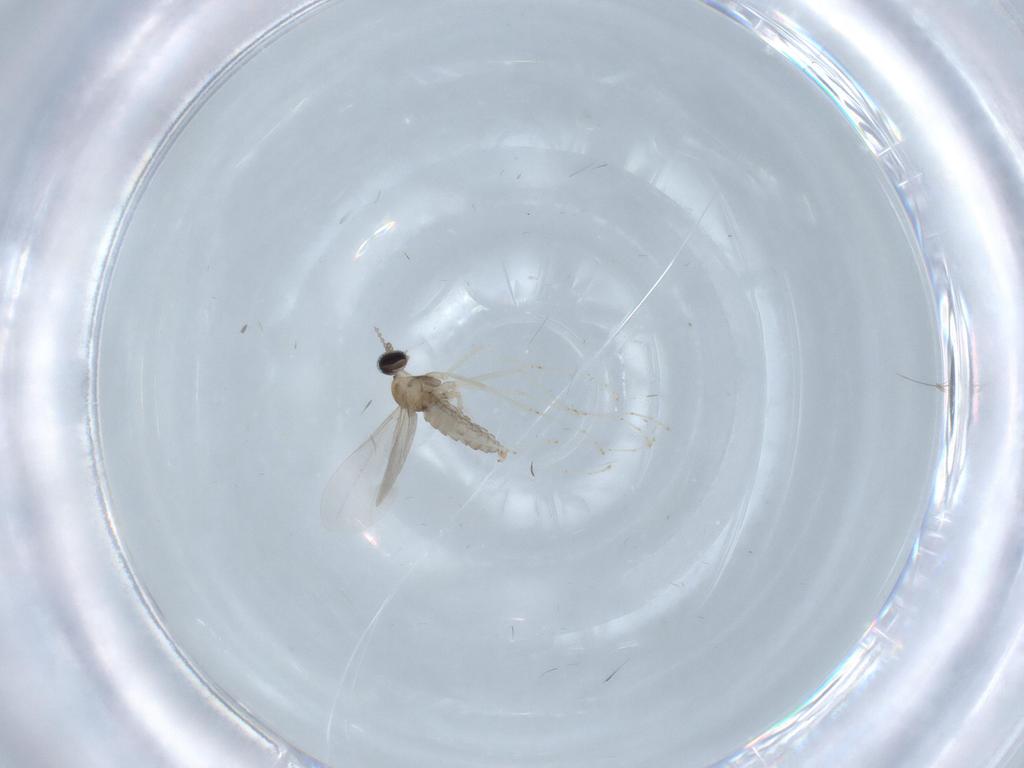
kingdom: Animalia
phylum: Arthropoda
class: Insecta
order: Diptera
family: Cecidomyiidae
